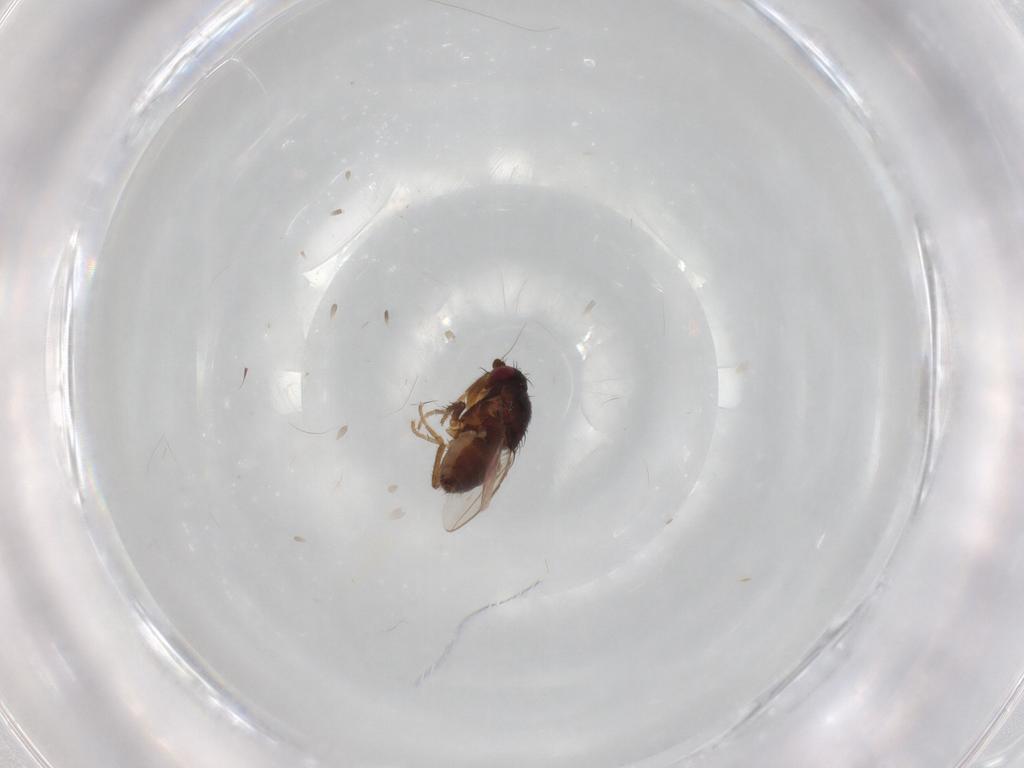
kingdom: Animalia
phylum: Arthropoda
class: Insecta
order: Diptera
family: Sphaeroceridae
